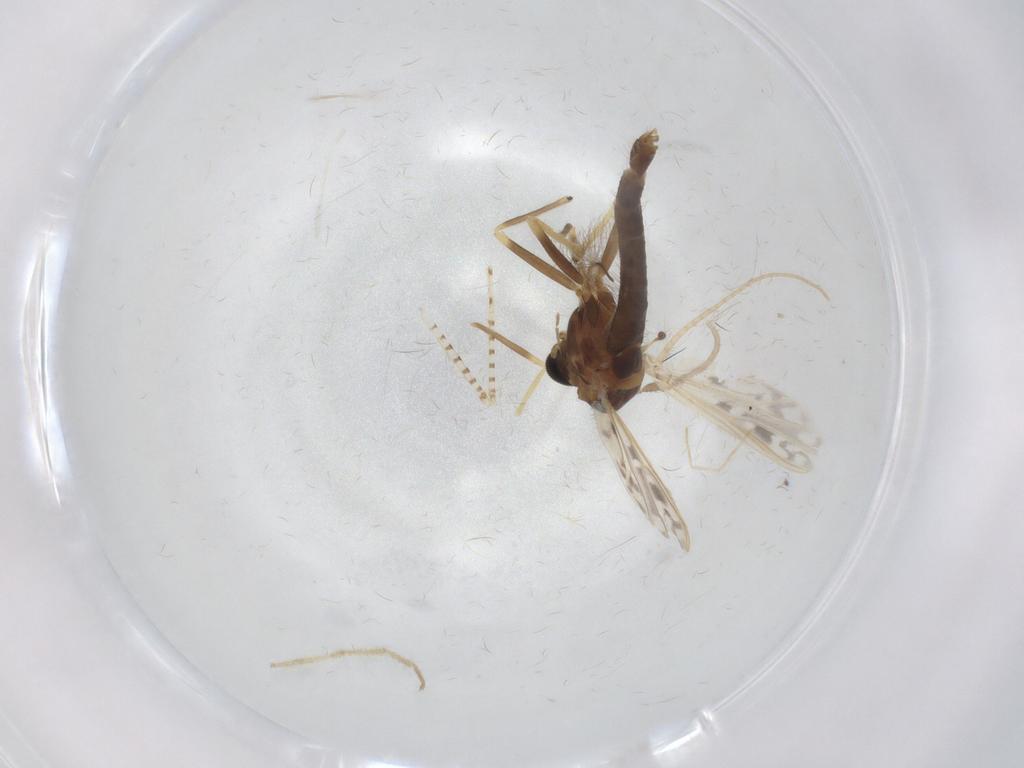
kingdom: Animalia
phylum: Arthropoda
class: Insecta
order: Diptera
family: Chironomidae
